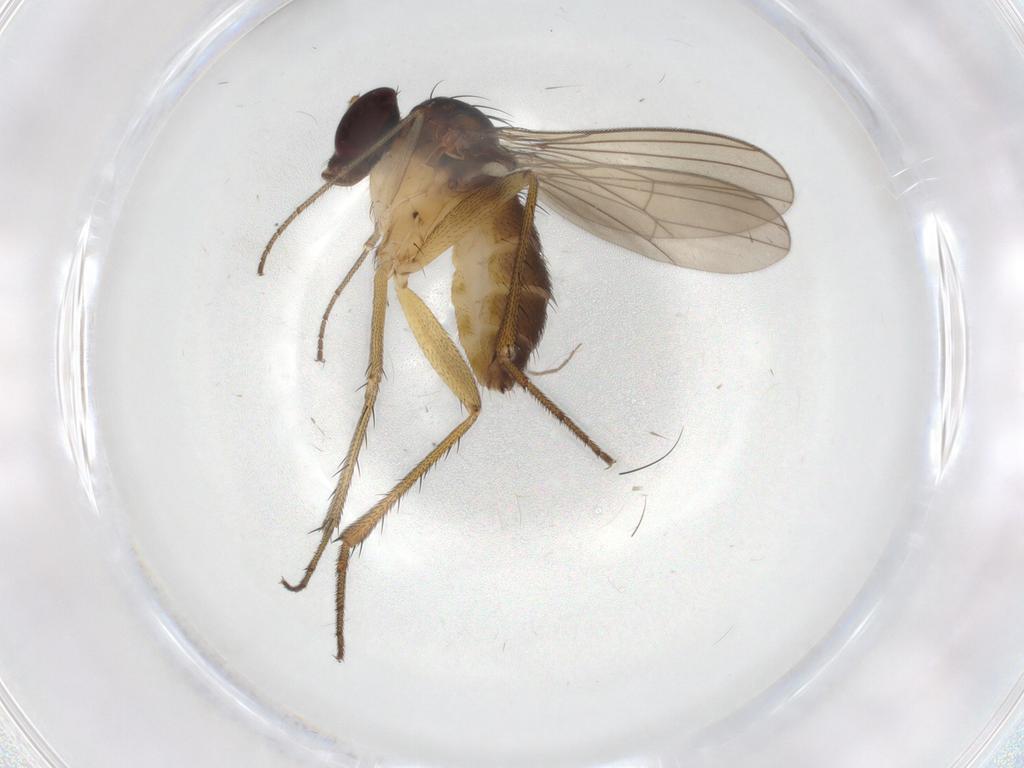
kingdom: Animalia
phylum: Arthropoda
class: Insecta
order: Diptera
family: Dolichopodidae
